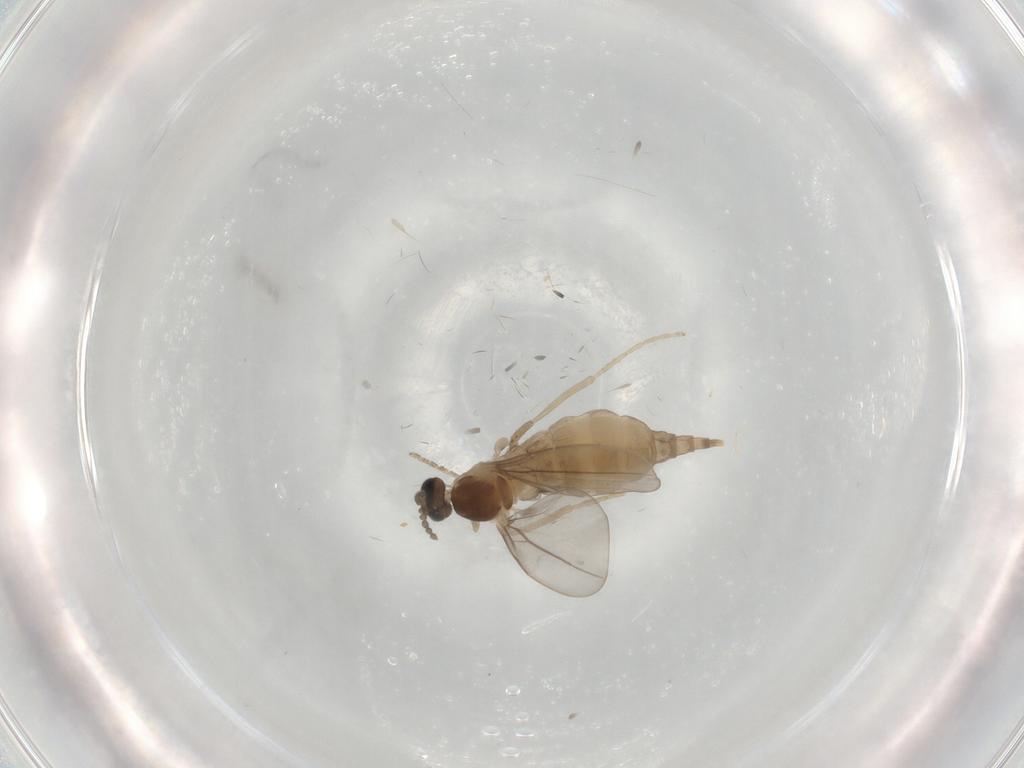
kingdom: Animalia
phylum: Arthropoda
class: Insecta
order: Diptera
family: Cecidomyiidae
